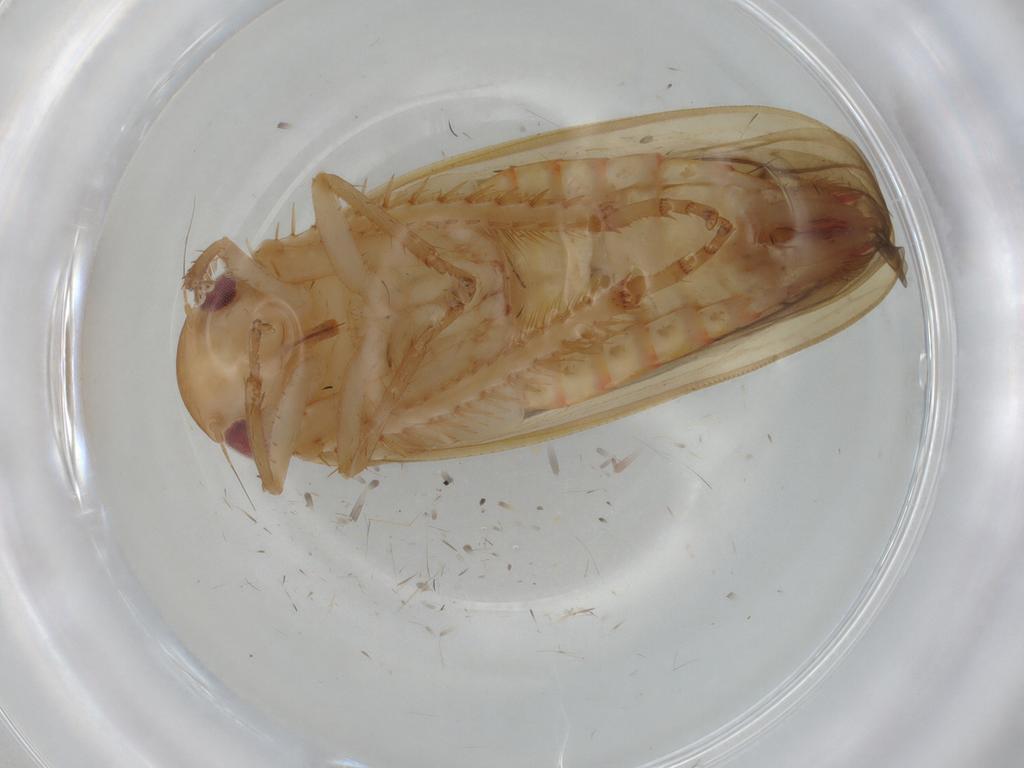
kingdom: Animalia
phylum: Arthropoda
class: Insecta
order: Hemiptera
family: Cicadellidae
